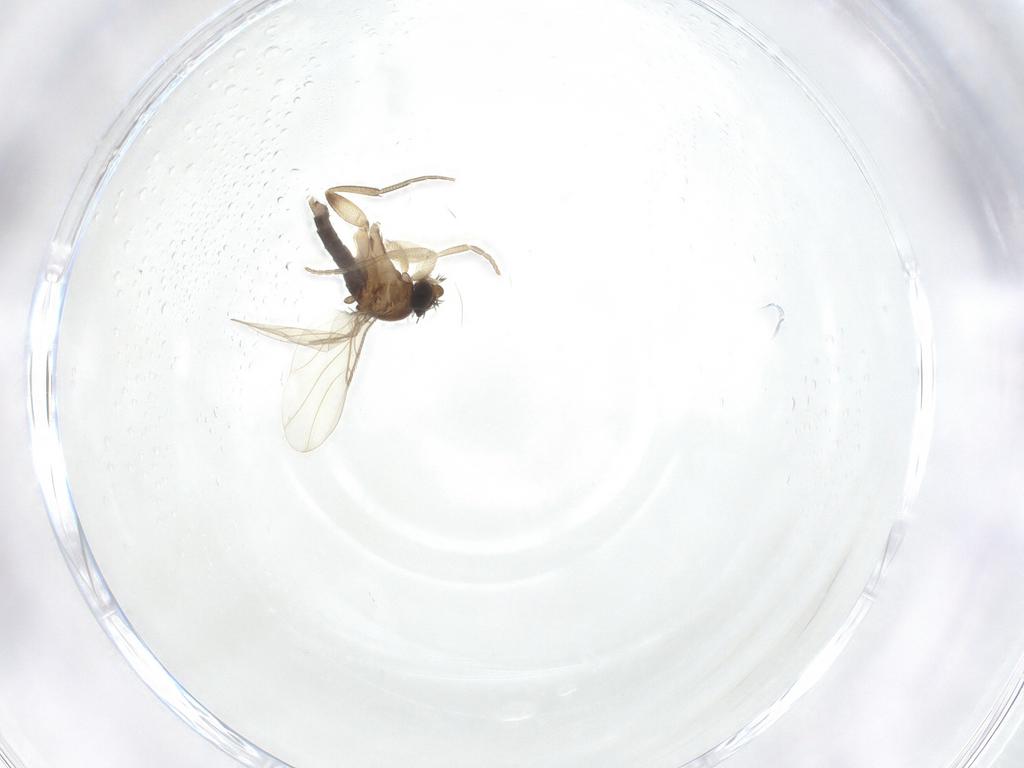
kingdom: Animalia
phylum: Arthropoda
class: Insecta
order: Diptera
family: Phoridae
